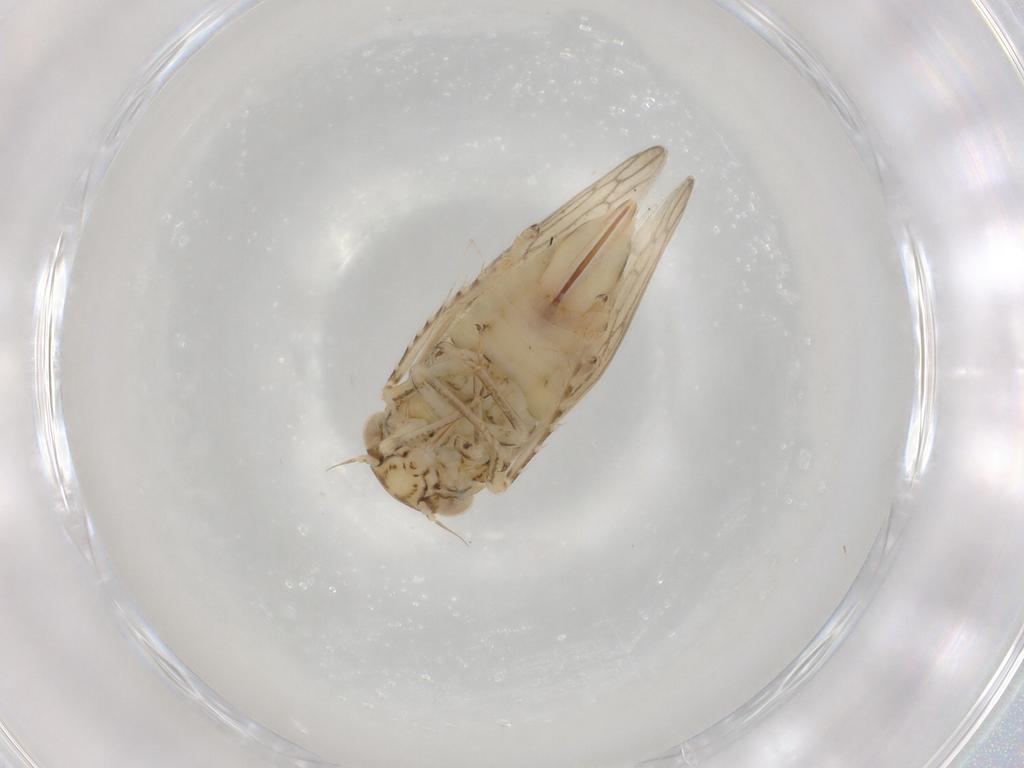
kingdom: Animalia
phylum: Arthropoda
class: Insecta
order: Hemiptera
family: Cicadellidae
